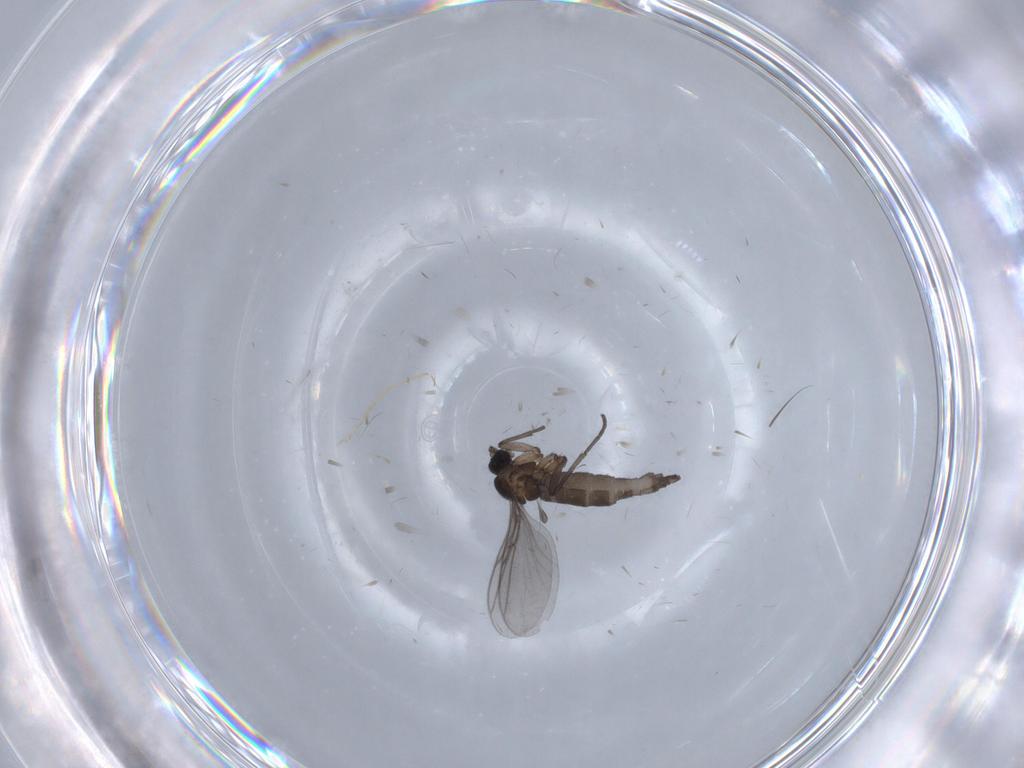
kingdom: Animalia
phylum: Arthropoda
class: Insecta
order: Diptera
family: Chironomidae
